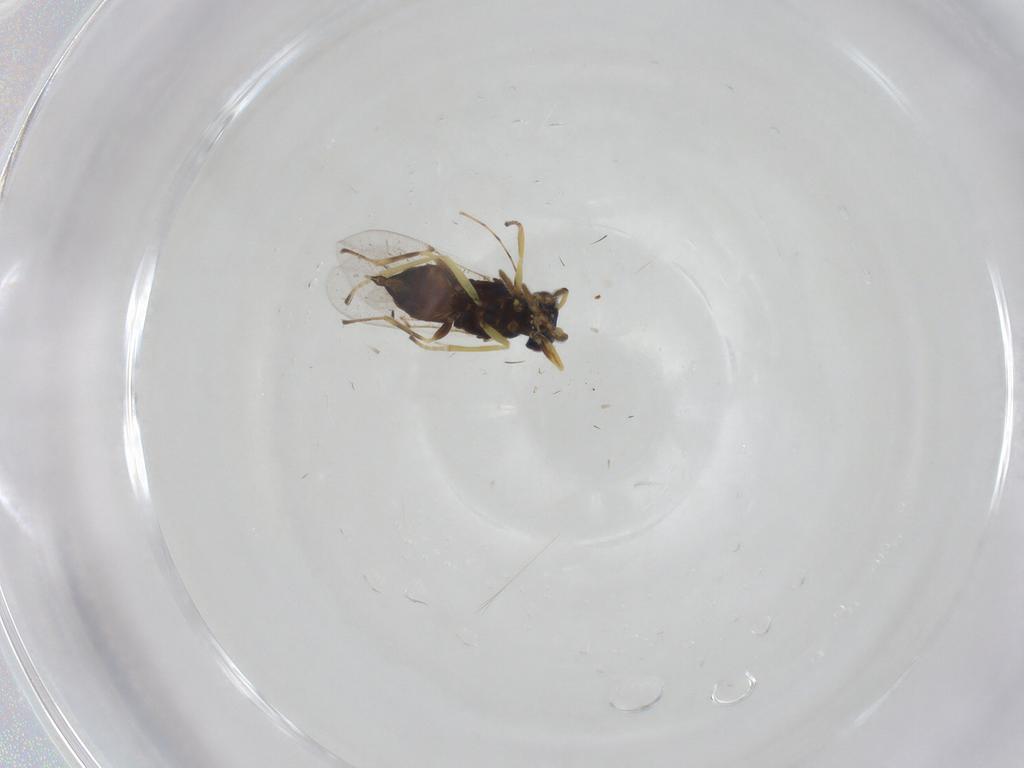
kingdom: Animalia
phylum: Arthropoda
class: Insecta
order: Hymenoptera
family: Encyrtidae
